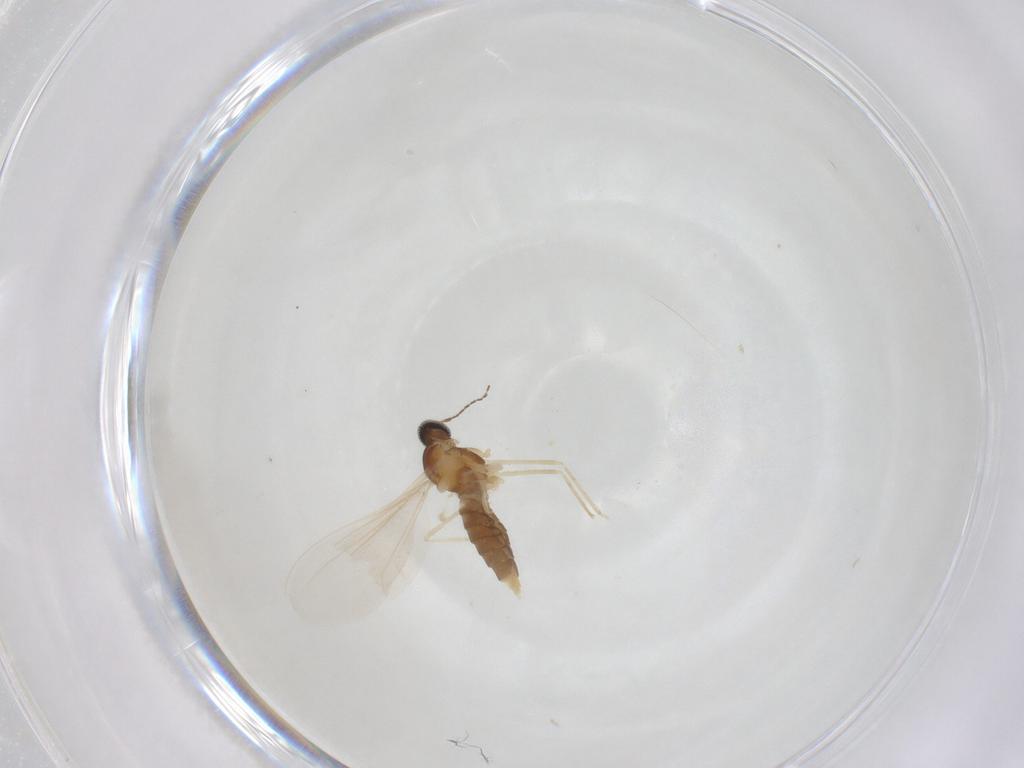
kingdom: Animalia
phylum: Arthropoda
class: Insecta
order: Diptera
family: Cecidomyiidae
